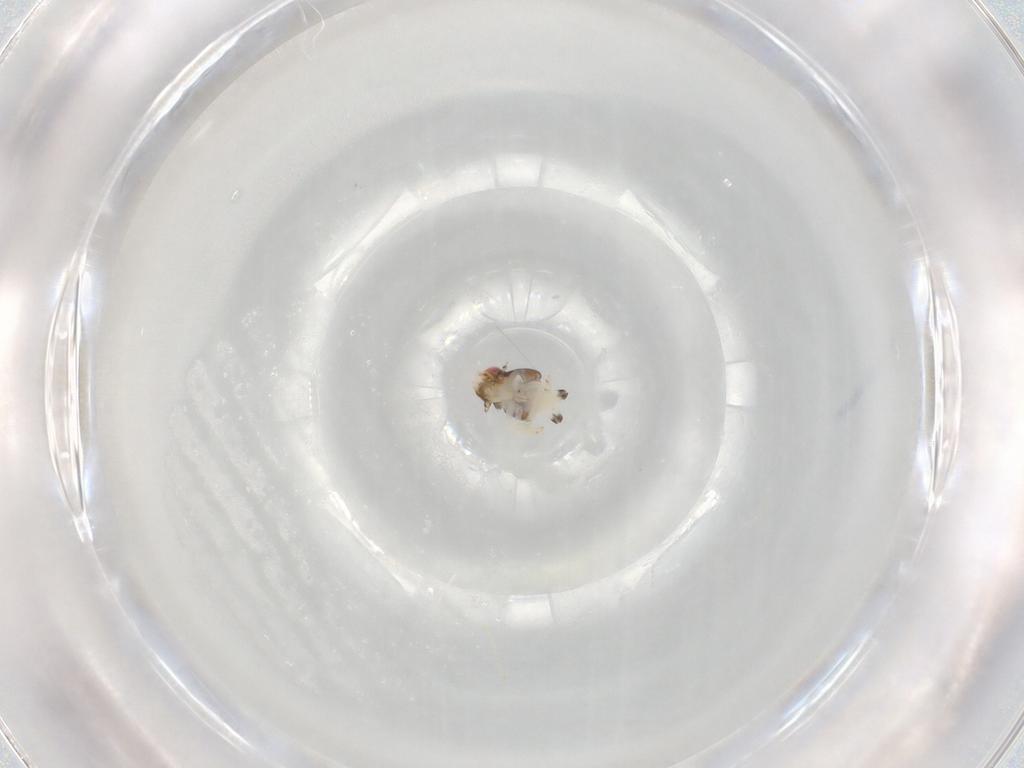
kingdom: Animalia
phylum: Arthropoda
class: Insecta
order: Hemiptera
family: Nogodinidae
